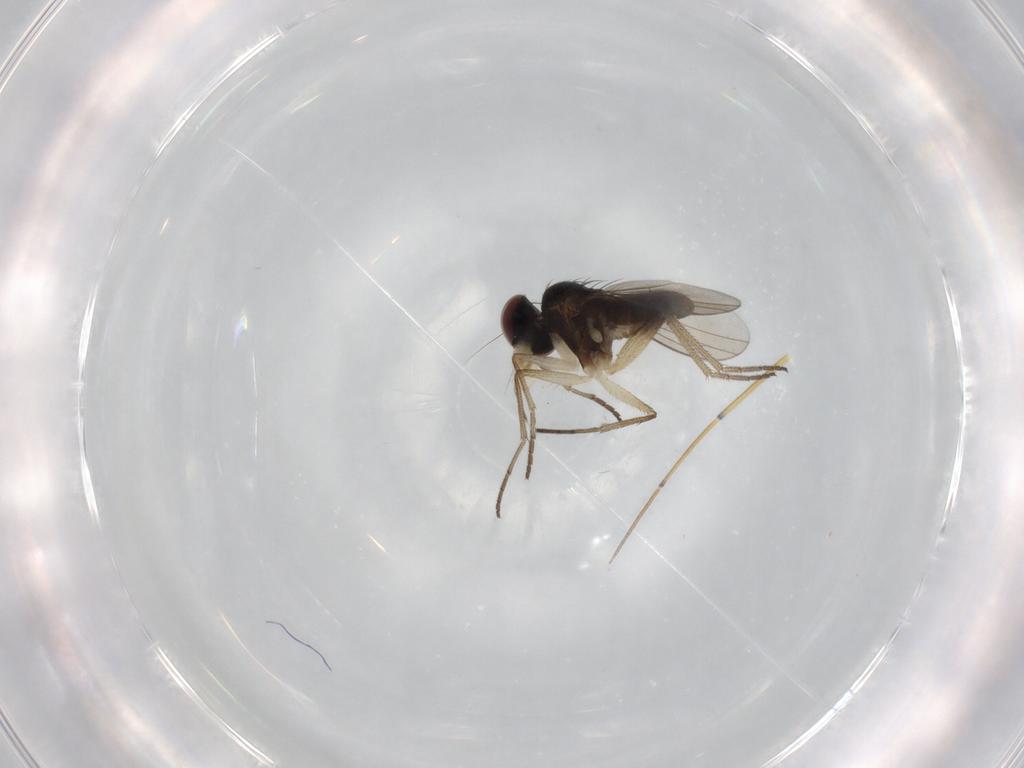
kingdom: Animalia
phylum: Arthropoda
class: Insecta
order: Diptera
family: Dolichopodidae
